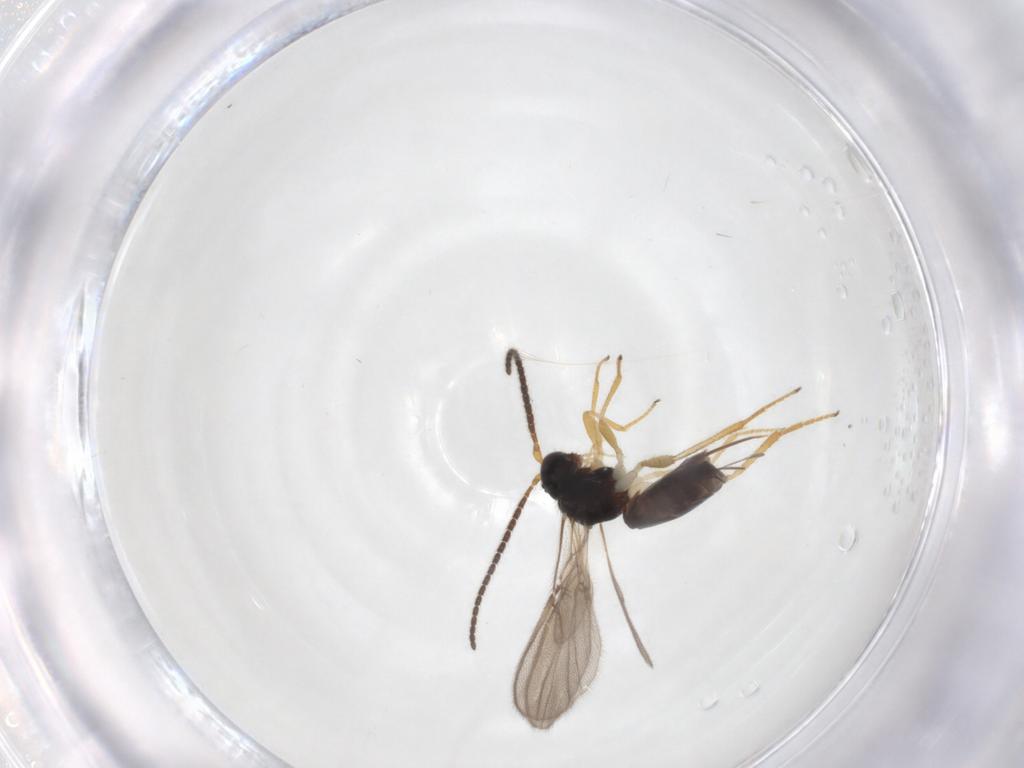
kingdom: Animalia
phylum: Arthropoda
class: Insecta
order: Hymenoptera
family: Braconidae
